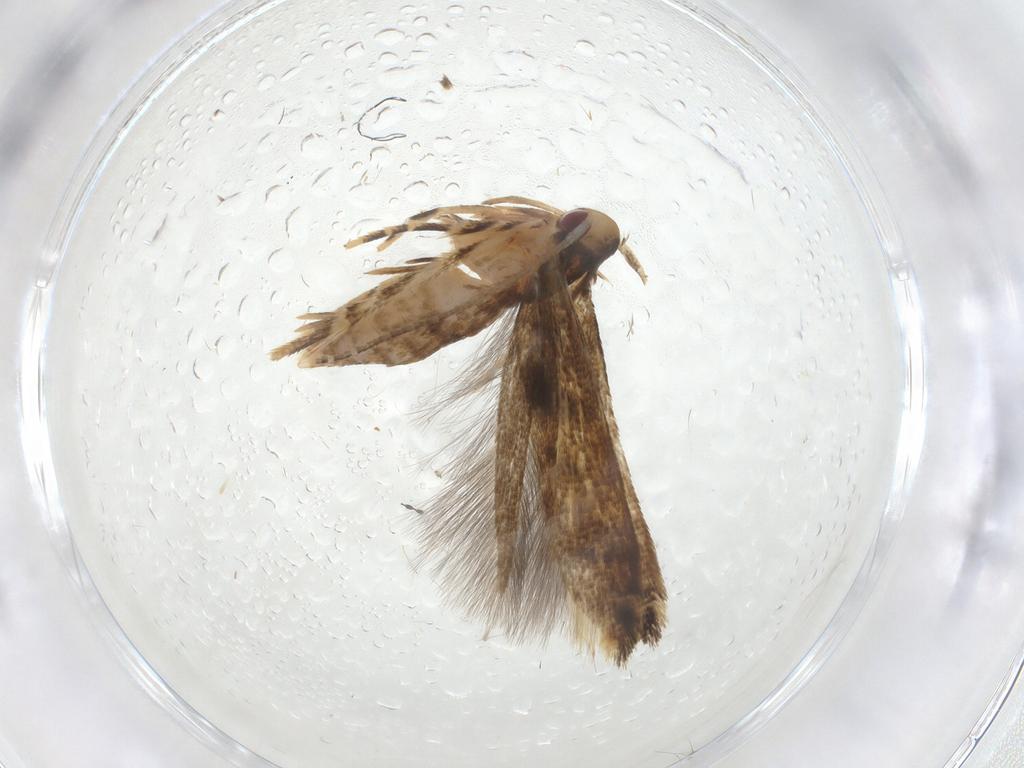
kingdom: Animalia
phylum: Arthropoda
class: Insecta
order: Lepidoptera
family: Momphidae
